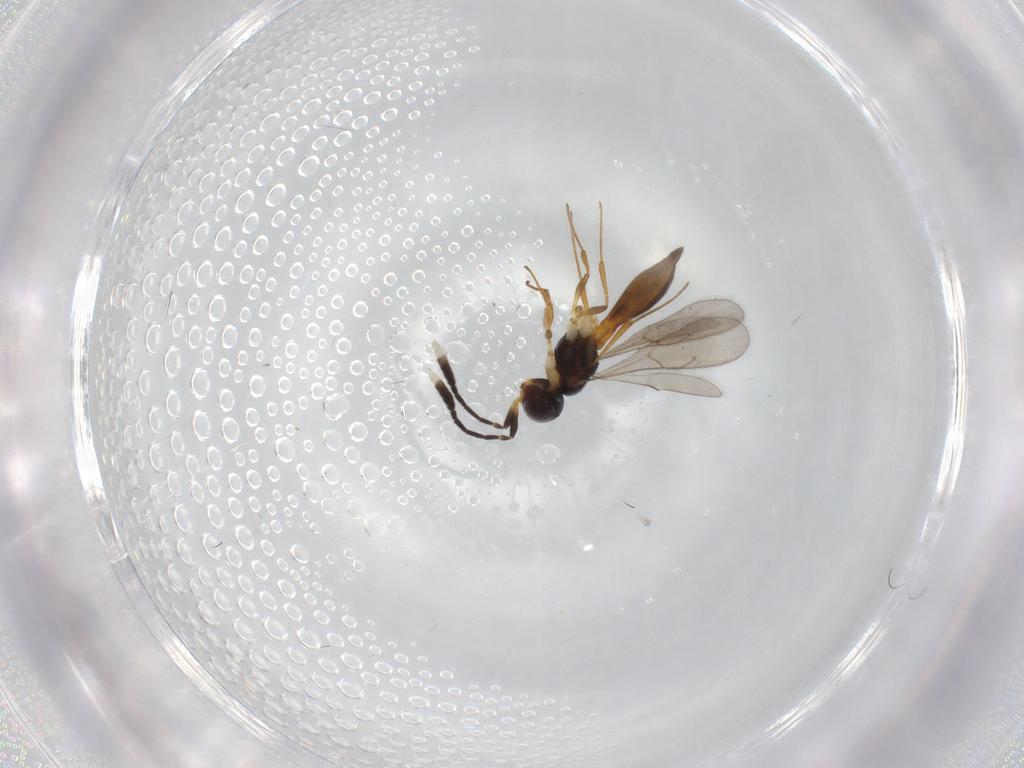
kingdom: Animalia
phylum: Arthropoda
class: Insecta
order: Hymenoptera
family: Scelionidae
